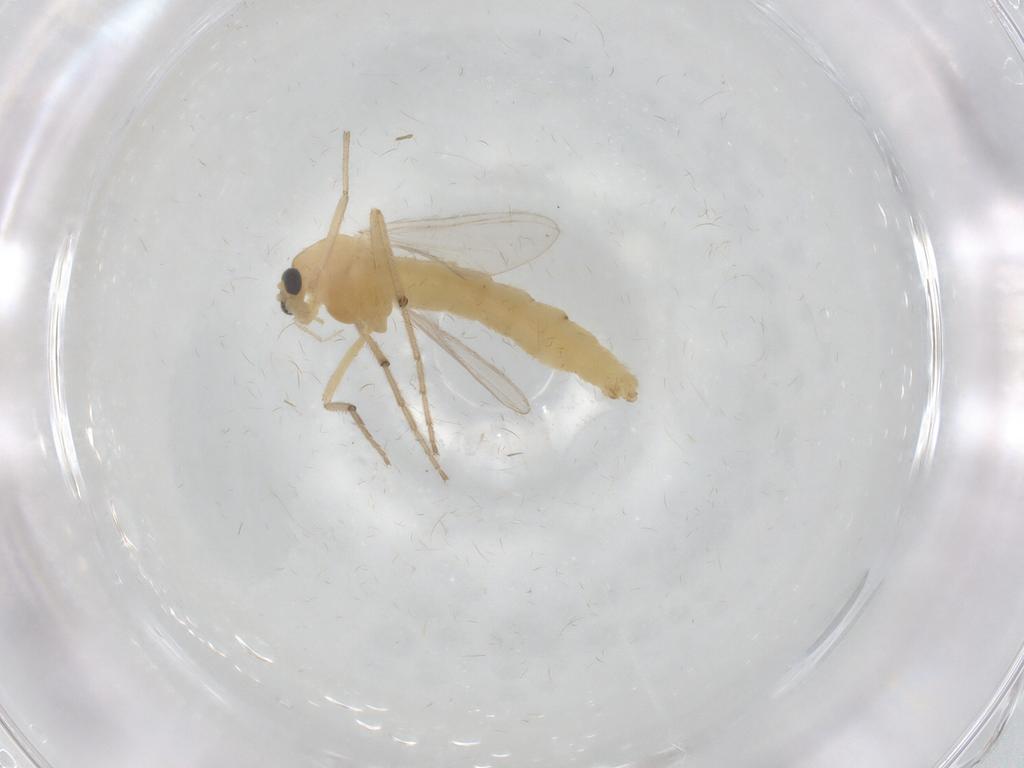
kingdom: Animalia
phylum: Arthropoda
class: Insecta
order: Diptera
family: Chironomidae
